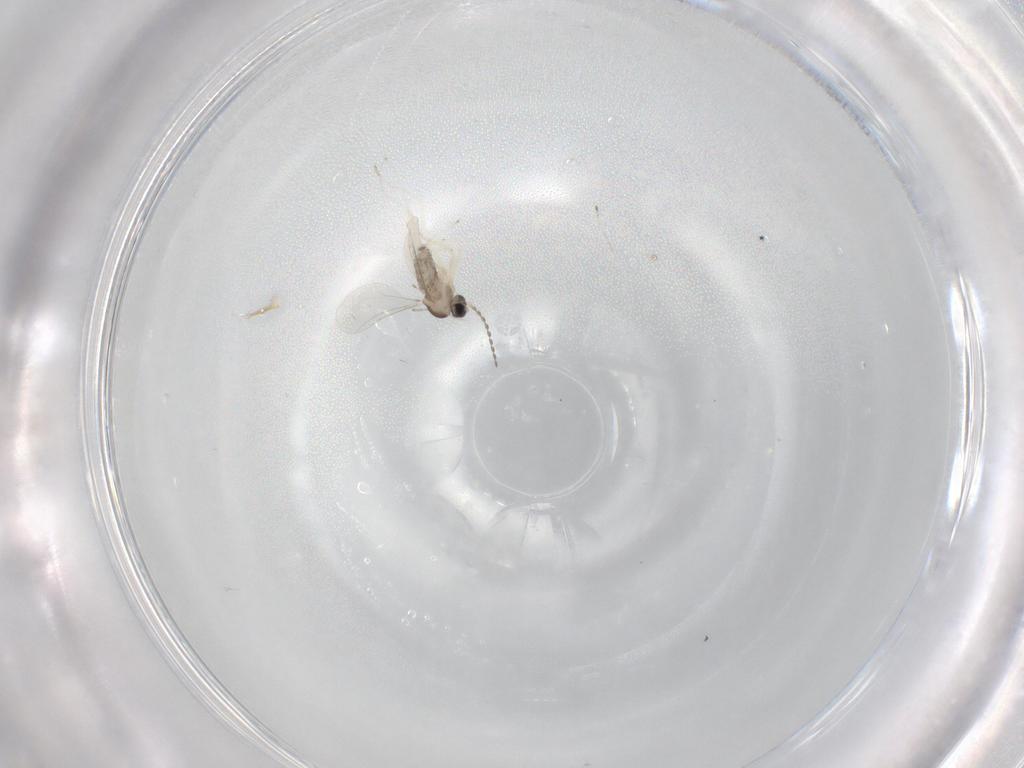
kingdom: Animalia
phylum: Arthropoda
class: Insecta
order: Diptera
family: Cecidomyiidae
